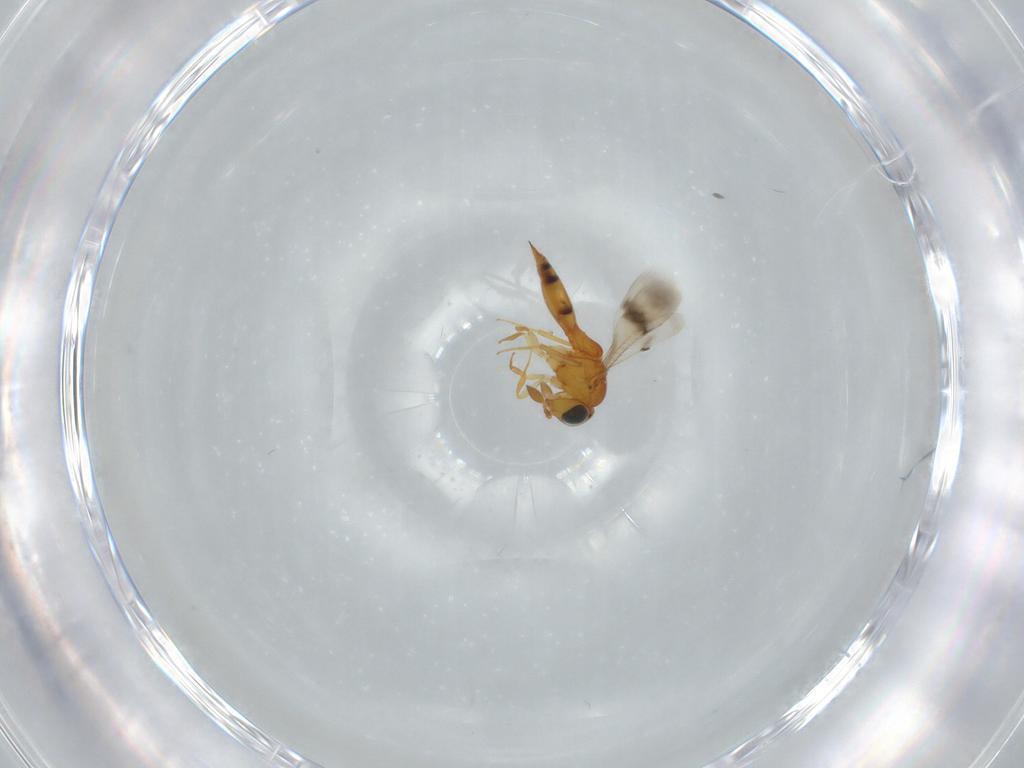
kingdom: Animalia
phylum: Arthropoda
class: Insecta
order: Hymenoptera
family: Scelionidae
